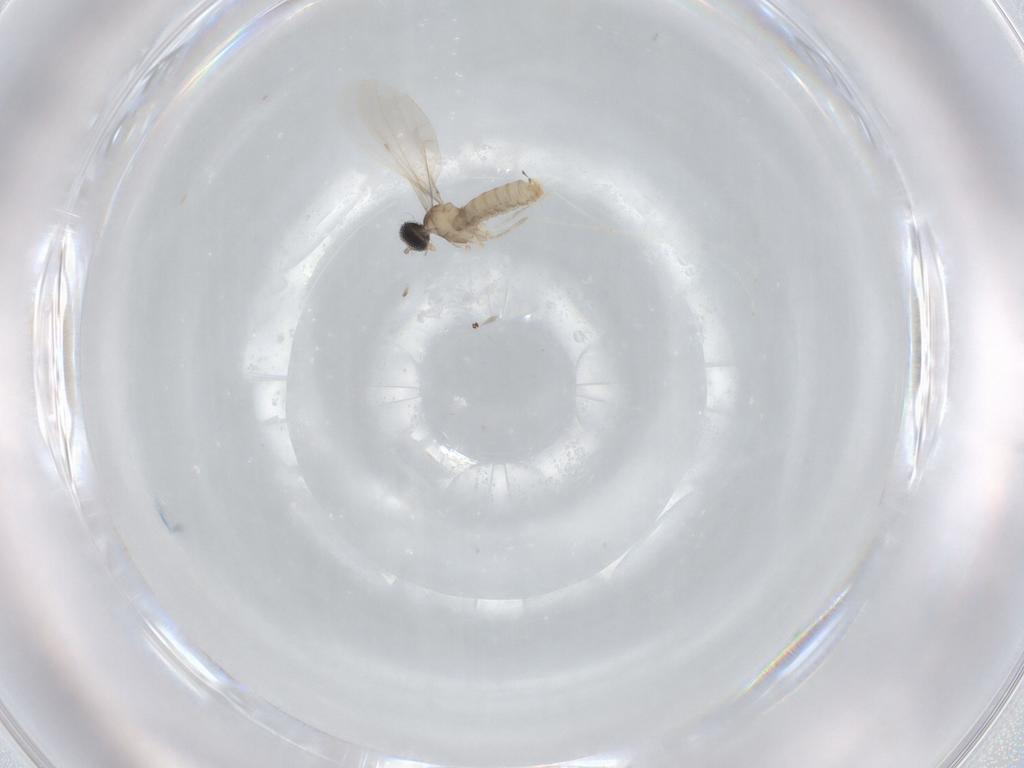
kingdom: Animalia
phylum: Arthropoda
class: Insecta
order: Diptera
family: Cecidomyiidae
